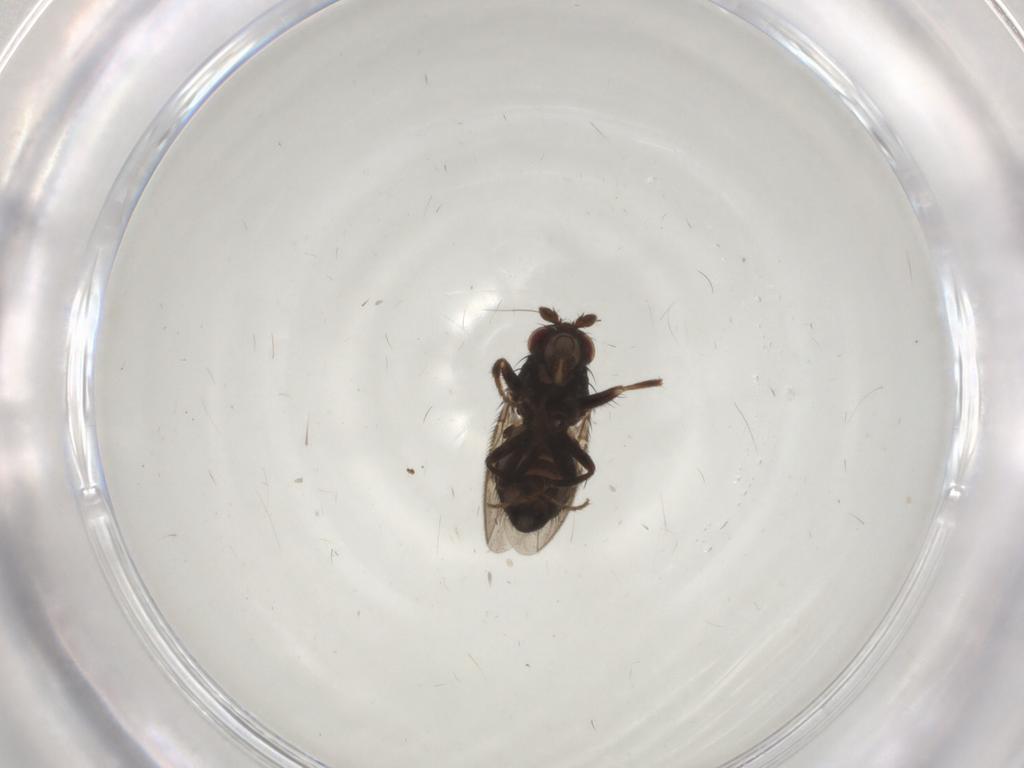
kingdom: Animalia
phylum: Arthropoda
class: Insecta
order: Diptera
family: Sphaeroceridae
